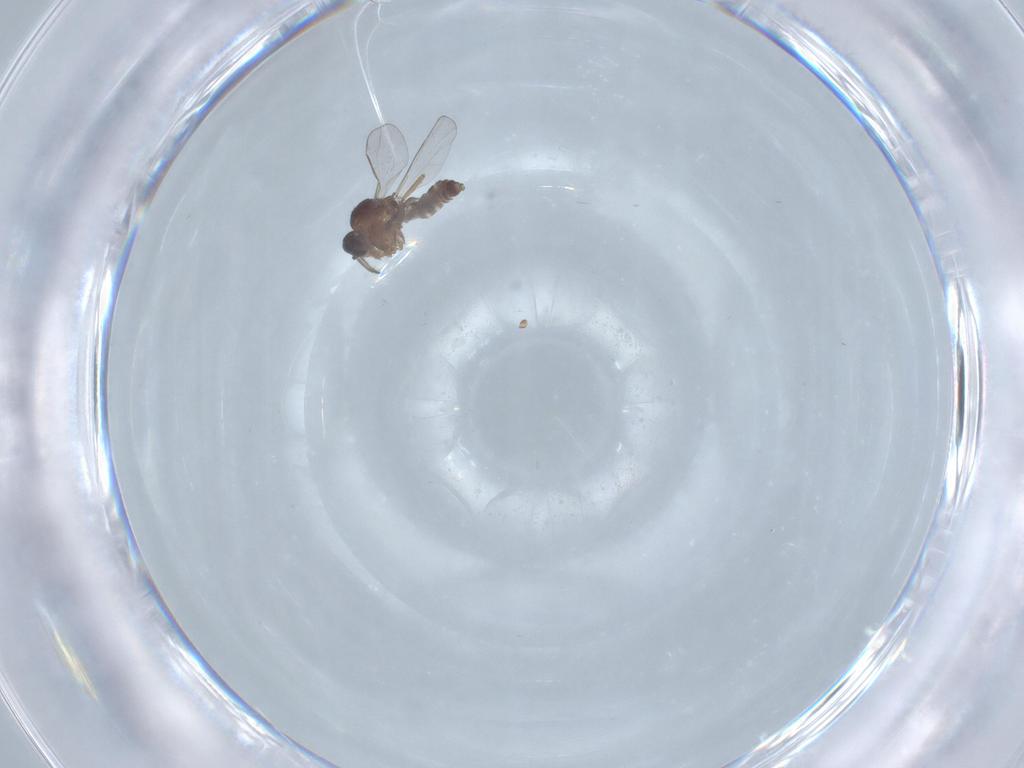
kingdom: Animalia
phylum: Arthropoda
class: Insecta
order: Diptera
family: Ceratopogonidae
